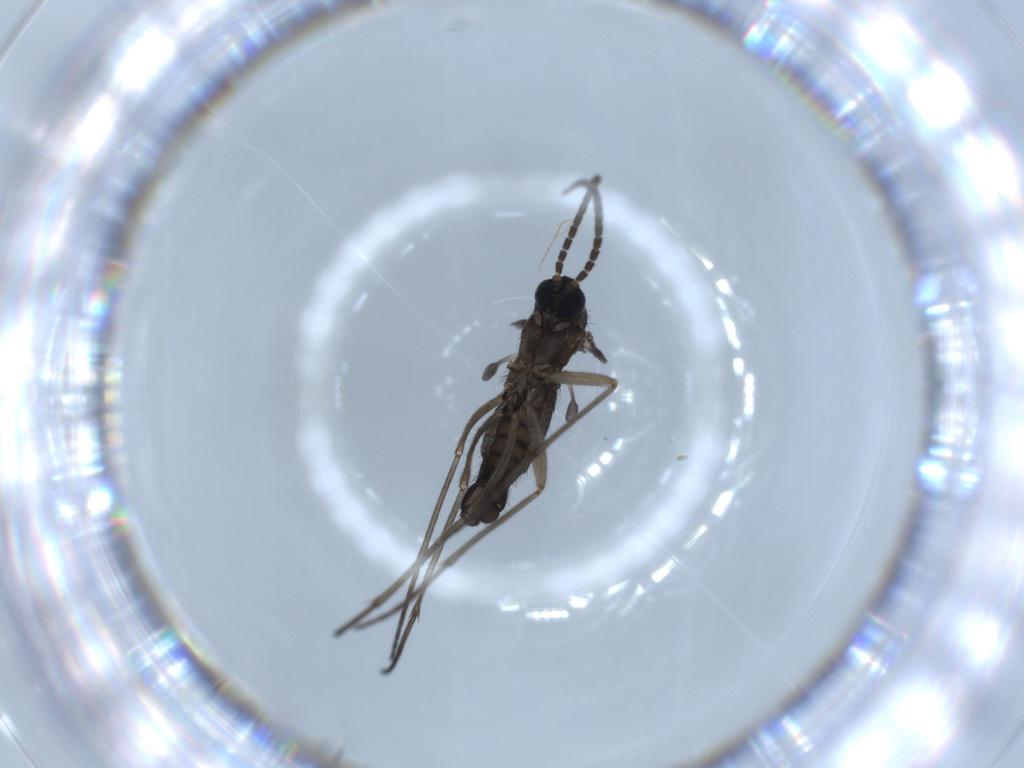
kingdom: Animalia
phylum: Arthropoda
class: Insecta
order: Diptera
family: Sciaridae
